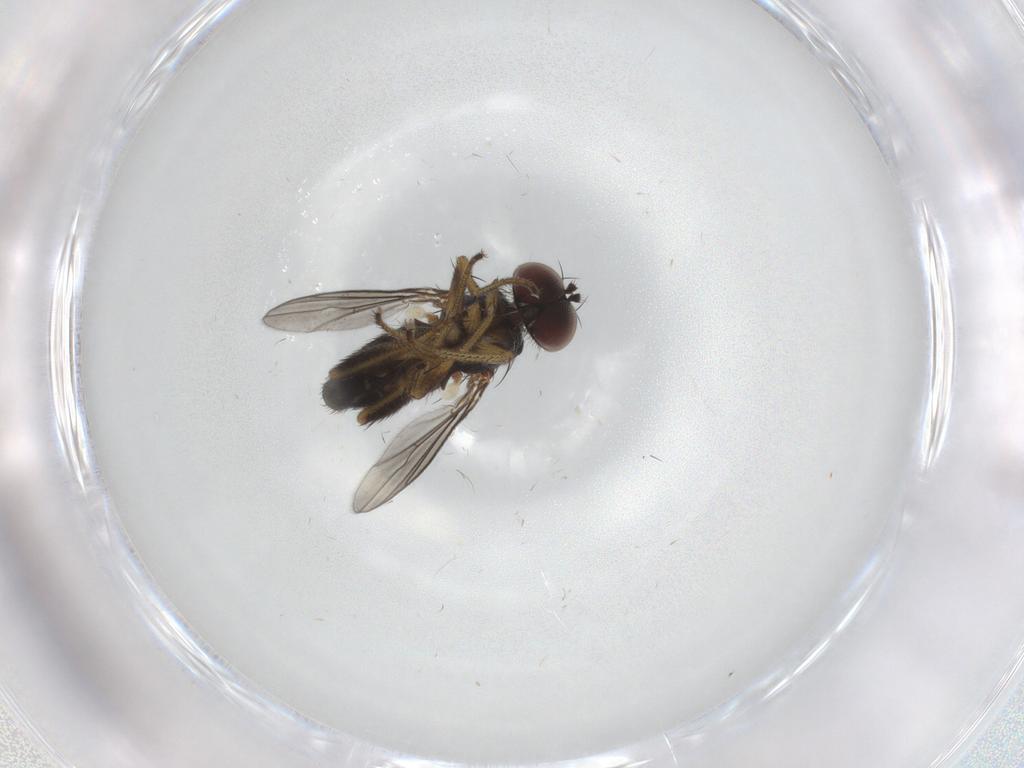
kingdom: Animalia
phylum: Arthropoda
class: Insecta
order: Diptera
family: Dolichopodidae
